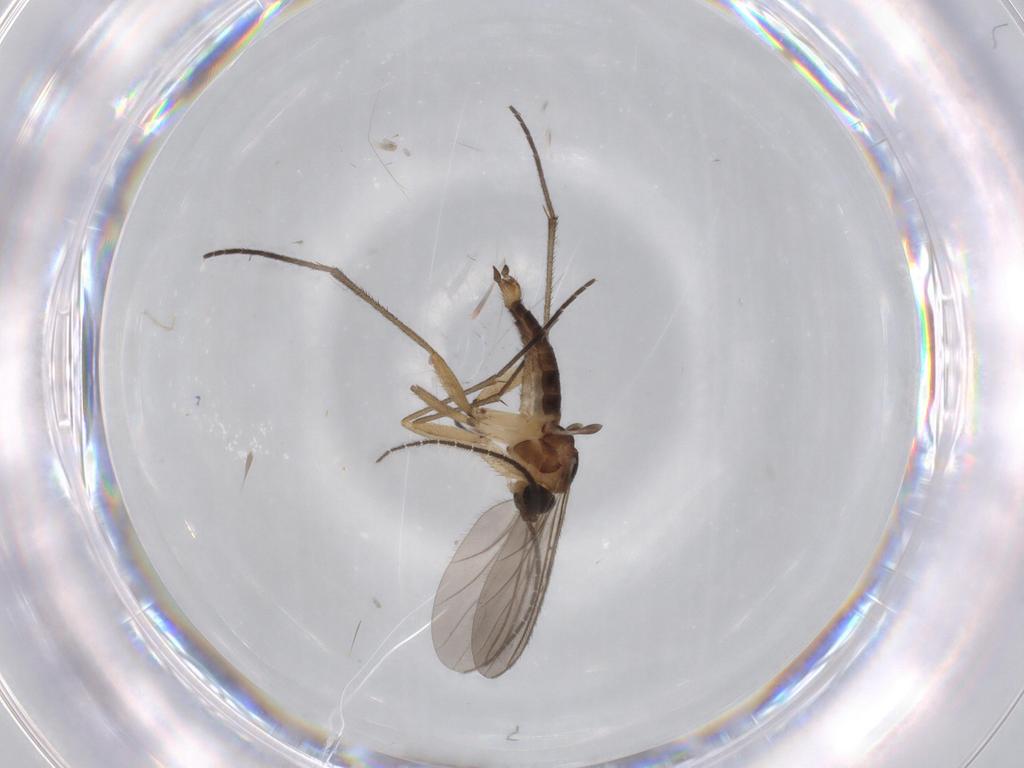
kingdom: Animalia
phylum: Arthropoda
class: Insecta
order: Diptera
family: Sciaridae
